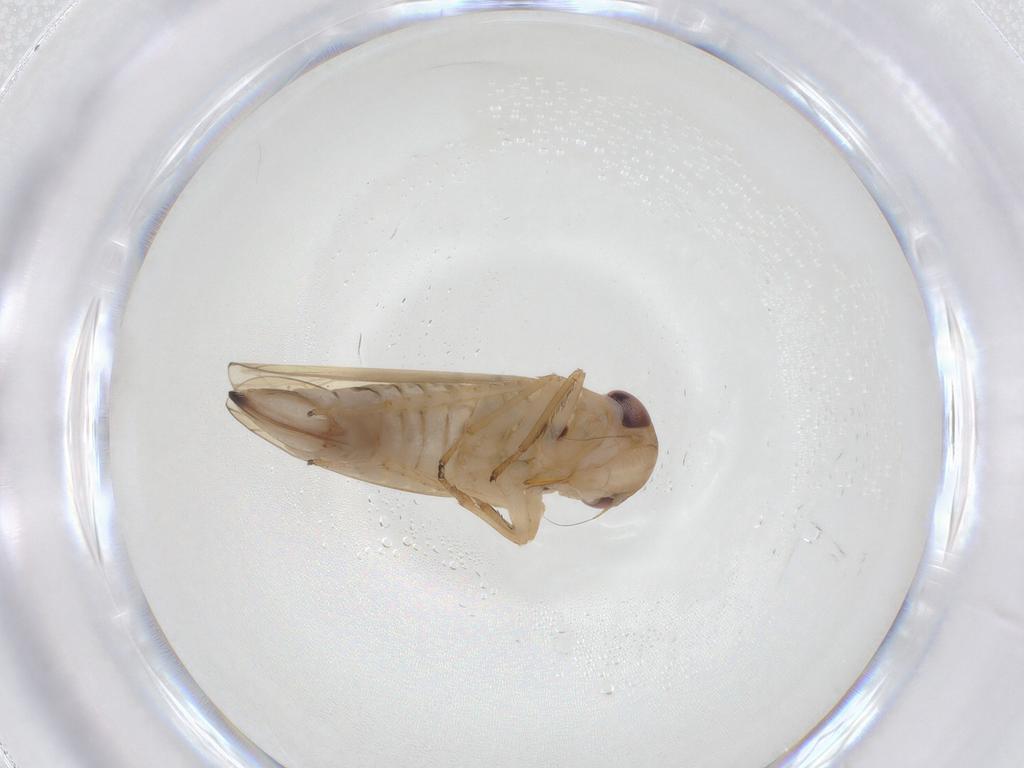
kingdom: Animalia
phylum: Arthropoda
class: Insecta
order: Hemiptera
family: Cicadellidae
